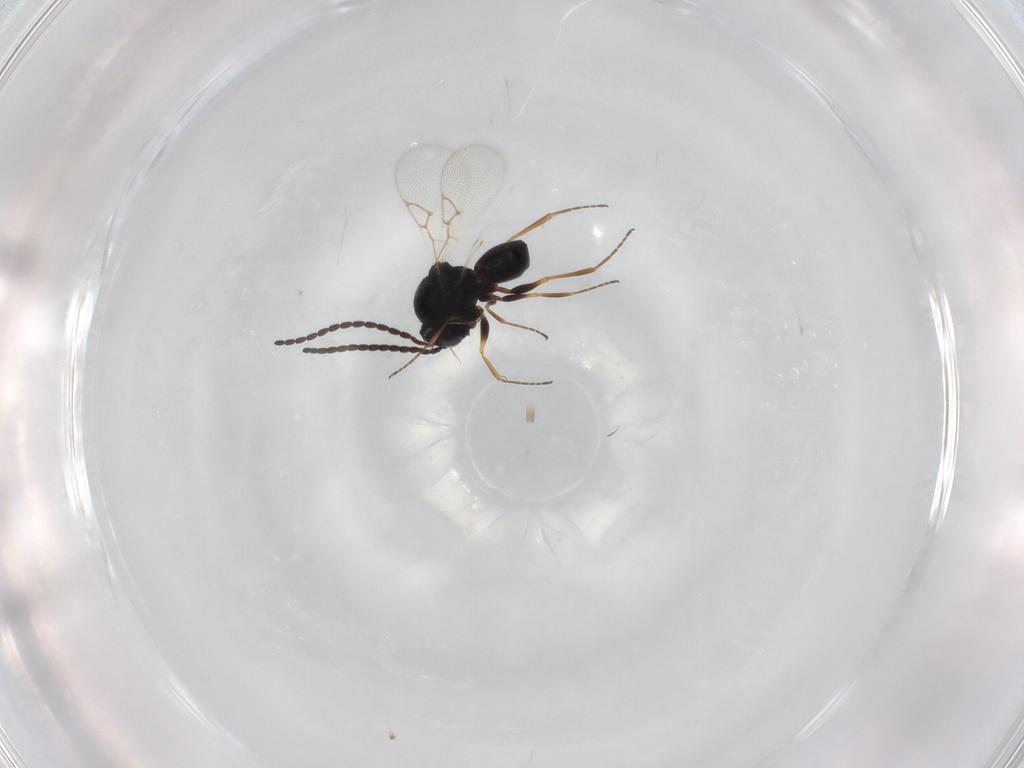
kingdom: Animalia
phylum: Arthropoda
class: Insecta
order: Hymenoptera
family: Figitidae
